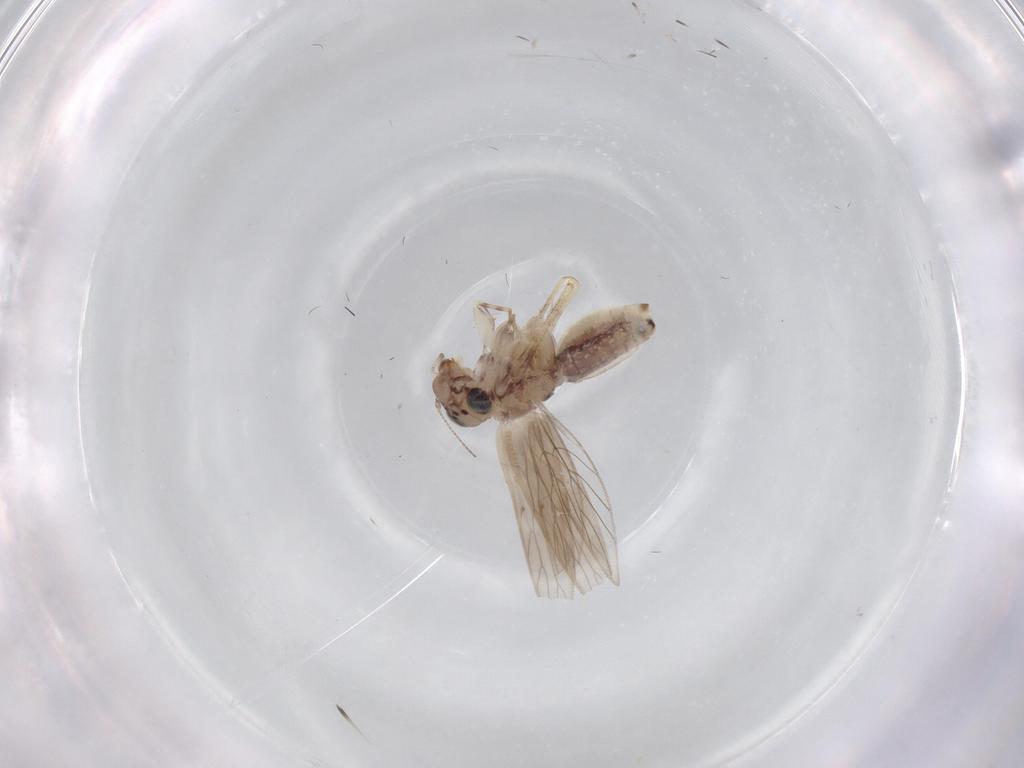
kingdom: Animalia
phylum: Arthropoda
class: Insecta
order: Psocodea
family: Lepidopsocidae
